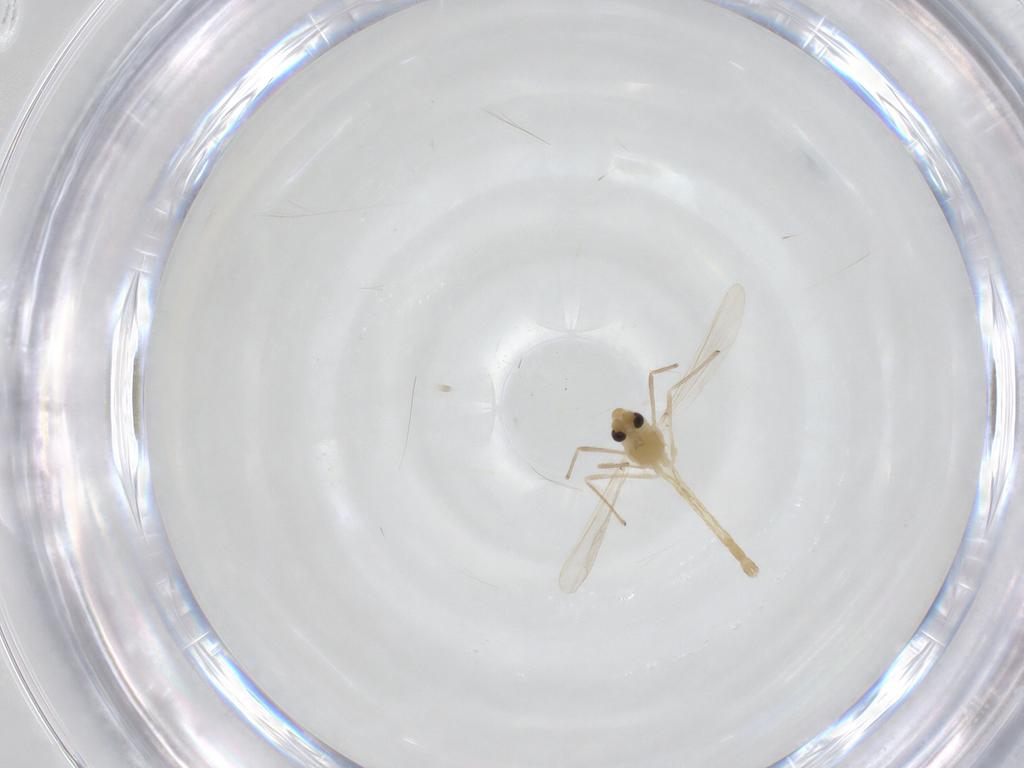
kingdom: Animalia
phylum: Arthropoda
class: Insecta
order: Diptera
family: Chironomidae
